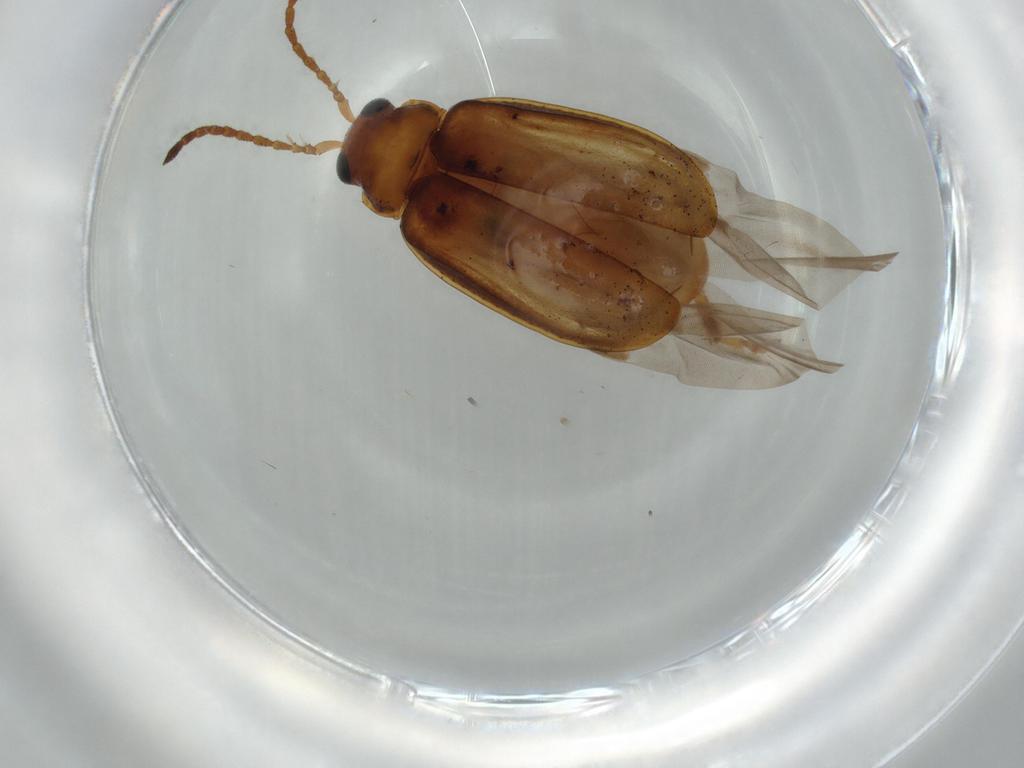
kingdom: Animalia
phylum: Arthropoda
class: Insecta
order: Coleoptera
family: Chrysomelidae
